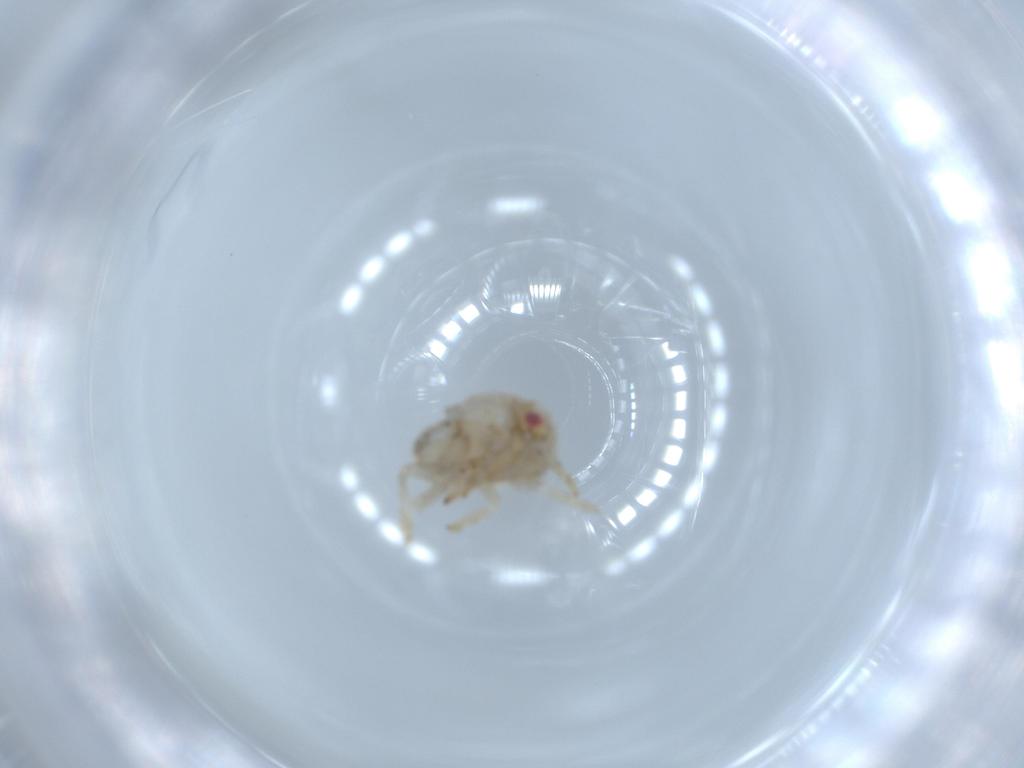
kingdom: Animalia
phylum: Arthropoda
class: Insecta
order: Hemiptera
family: Acanaloniidae
